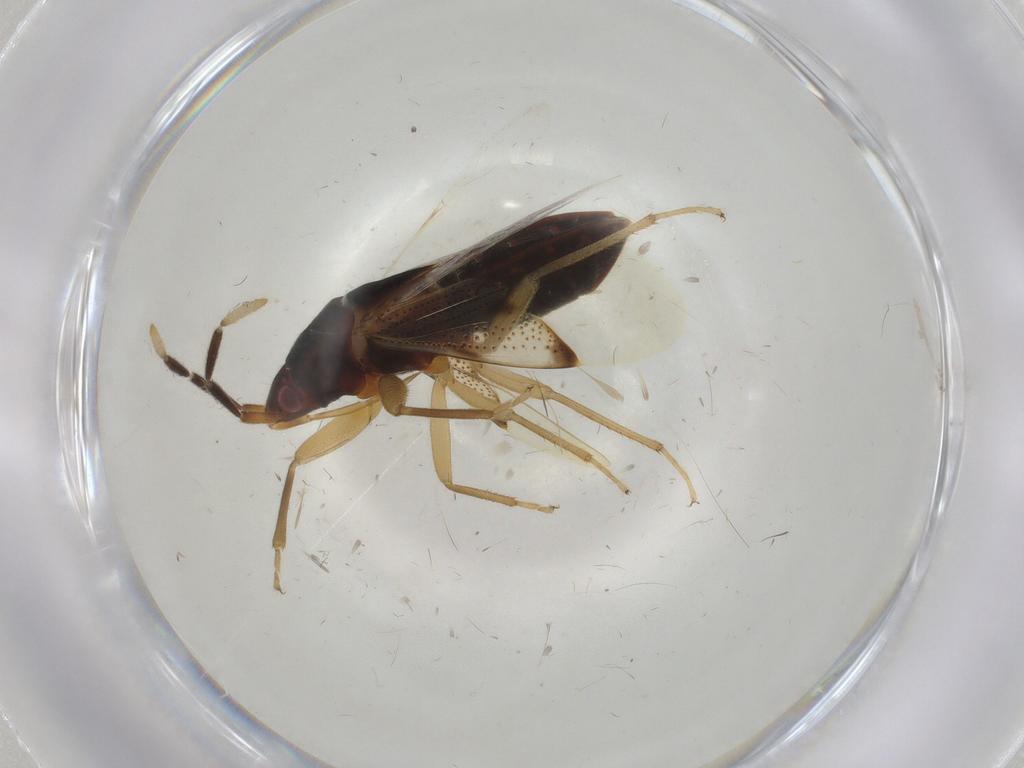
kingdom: Animalia
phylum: Arthropoda
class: Insecta
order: Hemiptera
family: Rhyparochromidae
